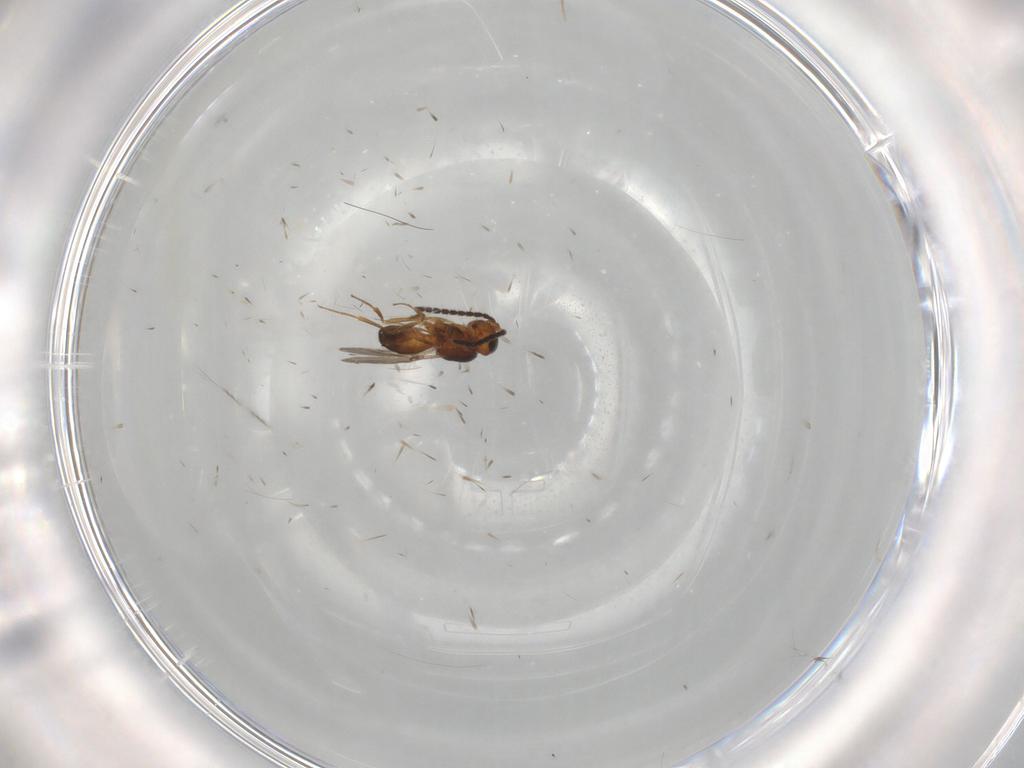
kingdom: Animalia
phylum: Arthropoda
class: Insecta
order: Hymenoptera
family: Scelionidae
